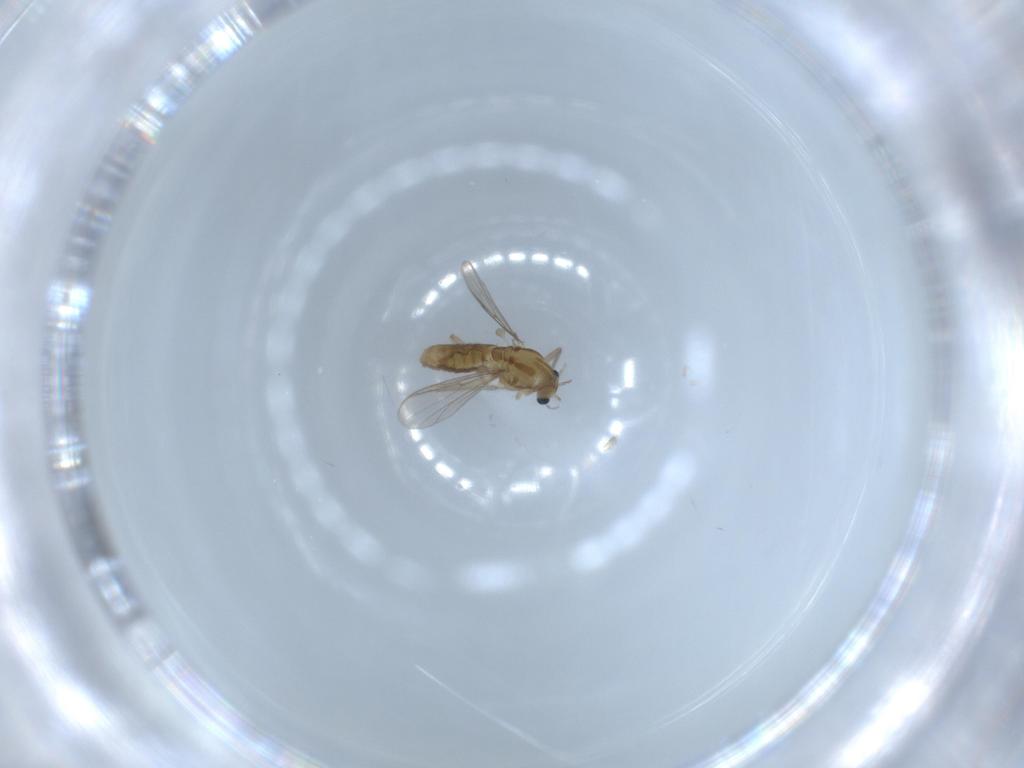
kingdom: Animalia
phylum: Arthropoda
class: Insecta
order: Diptera
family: Chironomidae
